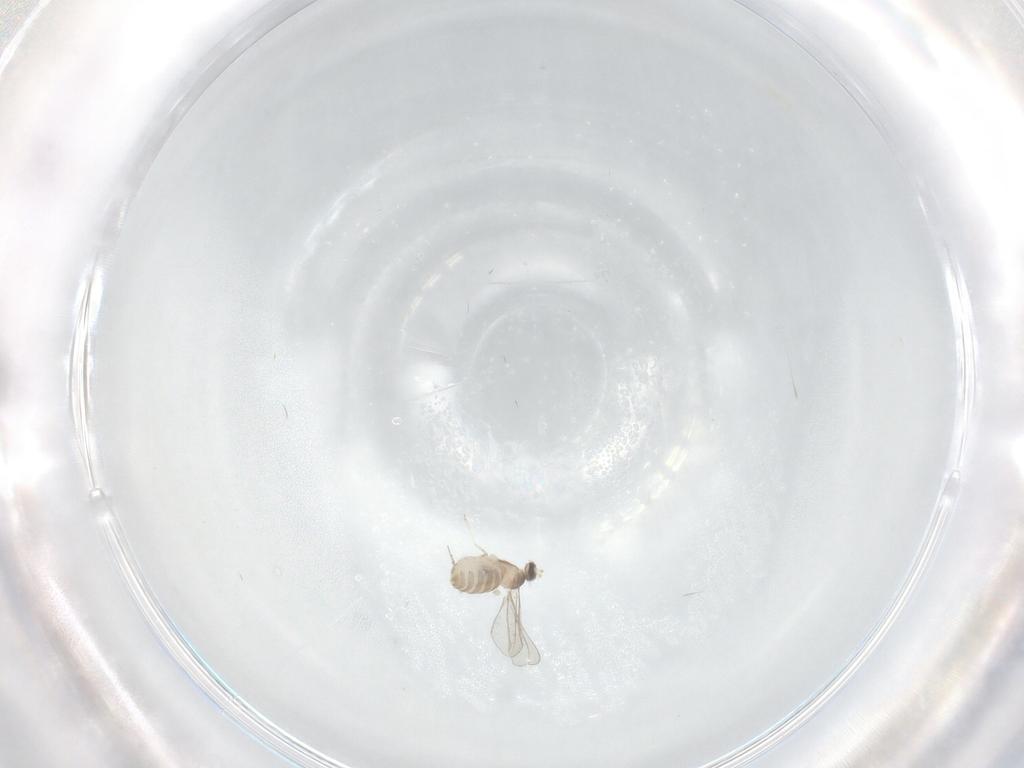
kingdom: Animalia
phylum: Arthropoda
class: Insecta
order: Diptera
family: Cecidomyiidae
